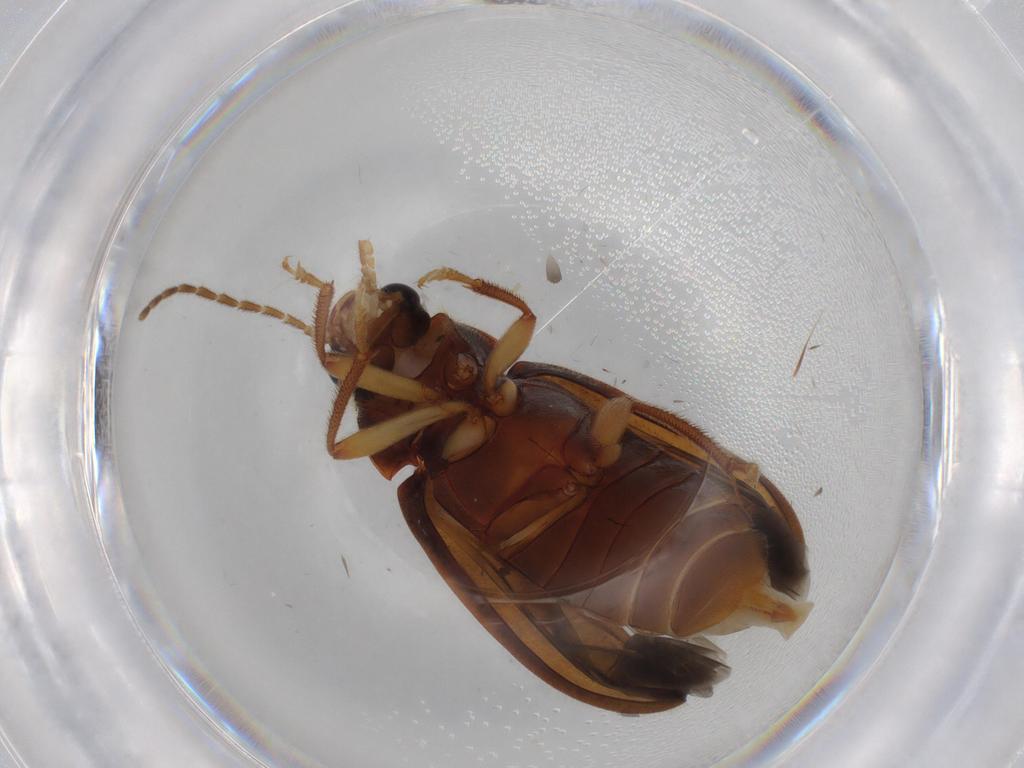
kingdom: Animalia
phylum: Arthropoda
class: Insecta
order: Coleoptera
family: Ptilodactylidae
